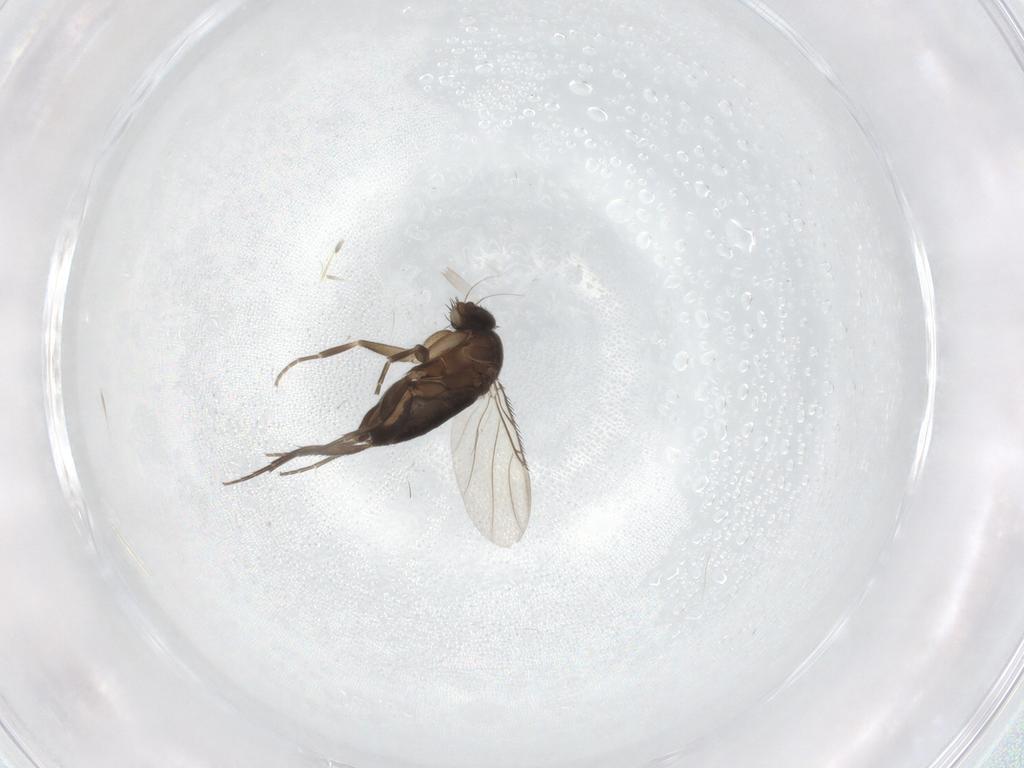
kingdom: Animalia
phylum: Arthropoda
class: Insecta
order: Diptera
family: Phoridae
